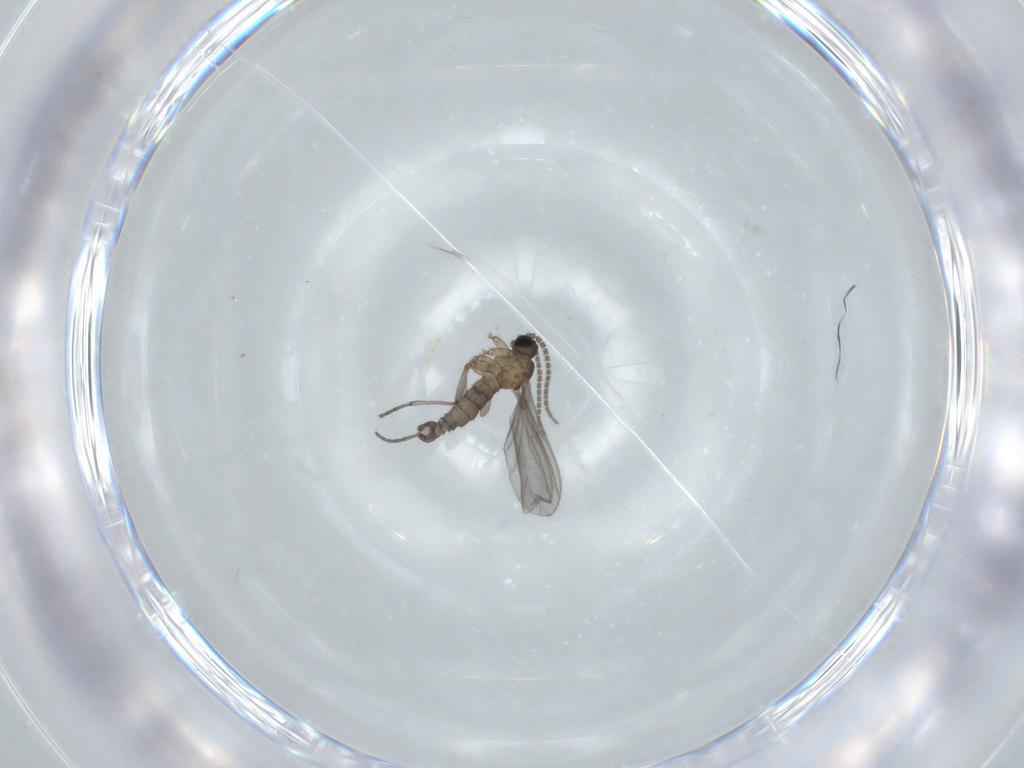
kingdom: Animalia
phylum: Arthropoda
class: Insecta
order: Diptera
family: Sciaridae
